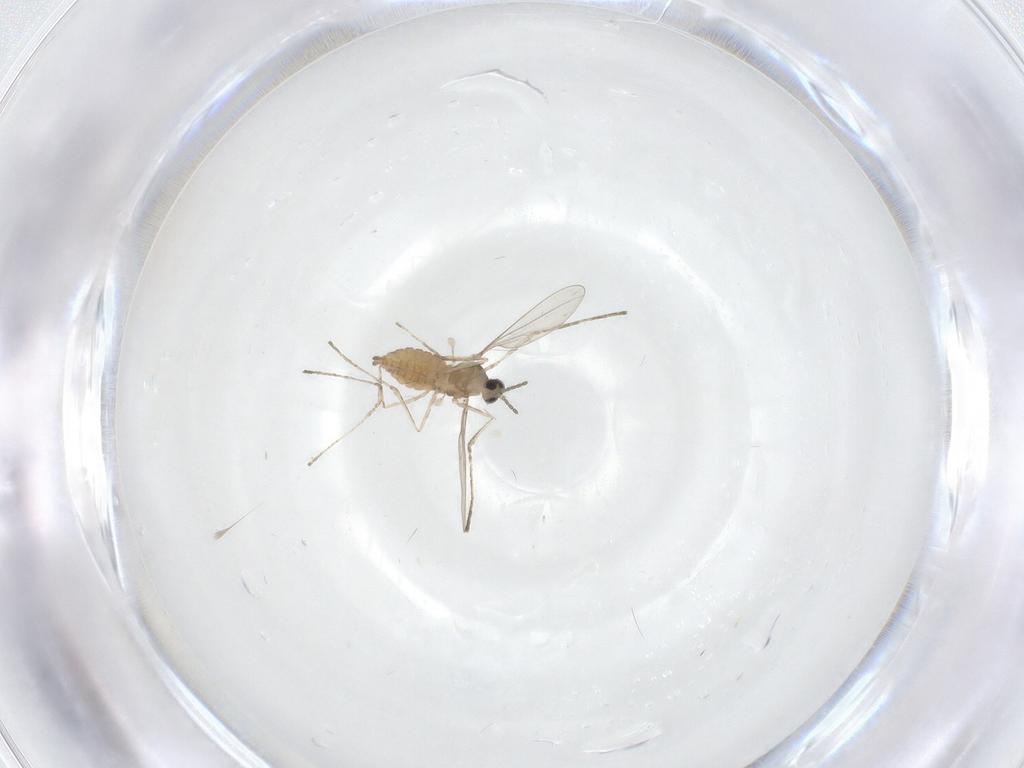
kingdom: Animalia
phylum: Arthropoda
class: Insecta
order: Diptera
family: Cecidomyiidae
